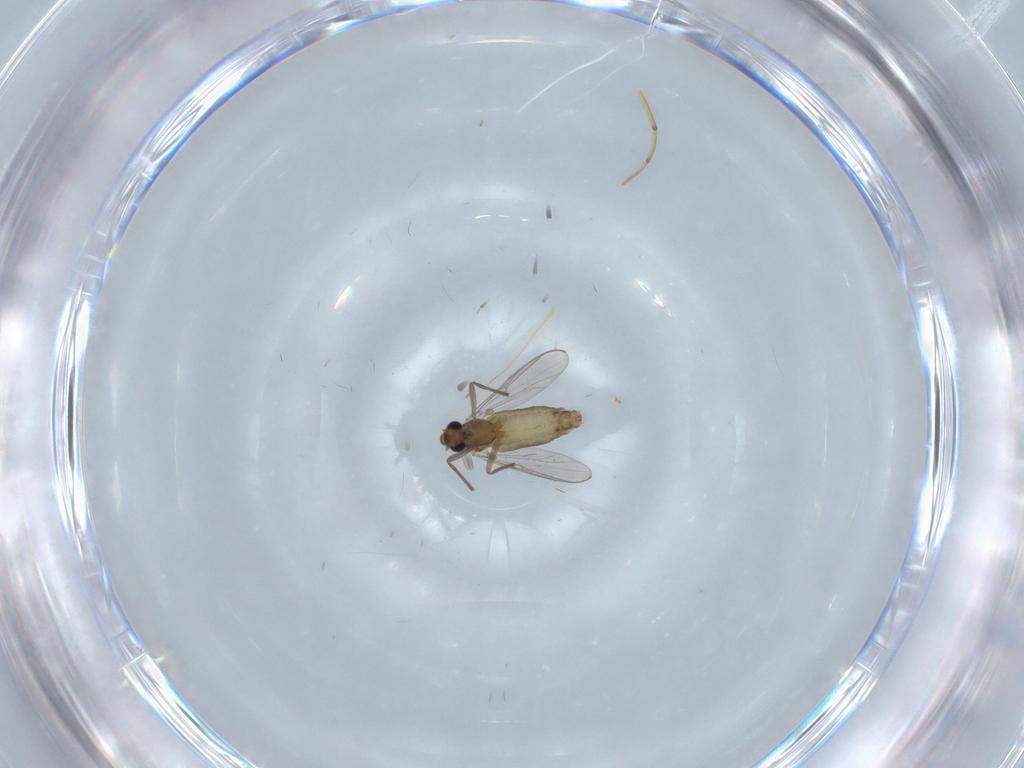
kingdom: Animalia
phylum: Arthropoda
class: Insecta
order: Diptera
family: Chironomidae
